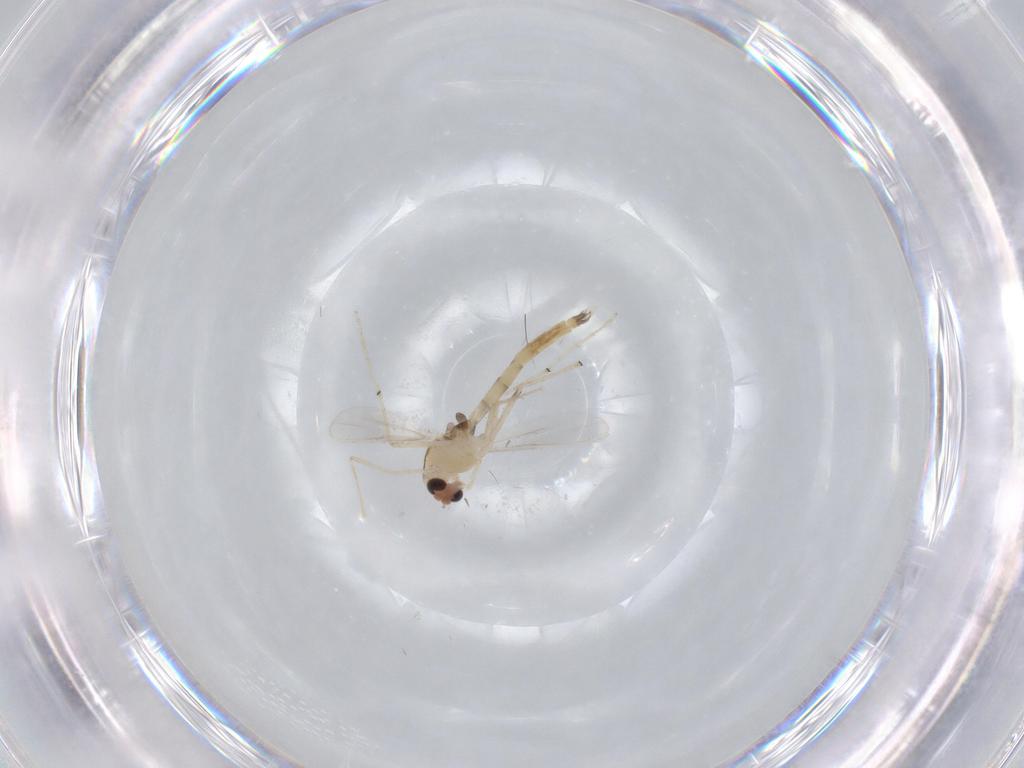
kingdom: Animalia
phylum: Arthropoda
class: Insecta
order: Diptera
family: Chironomidae
